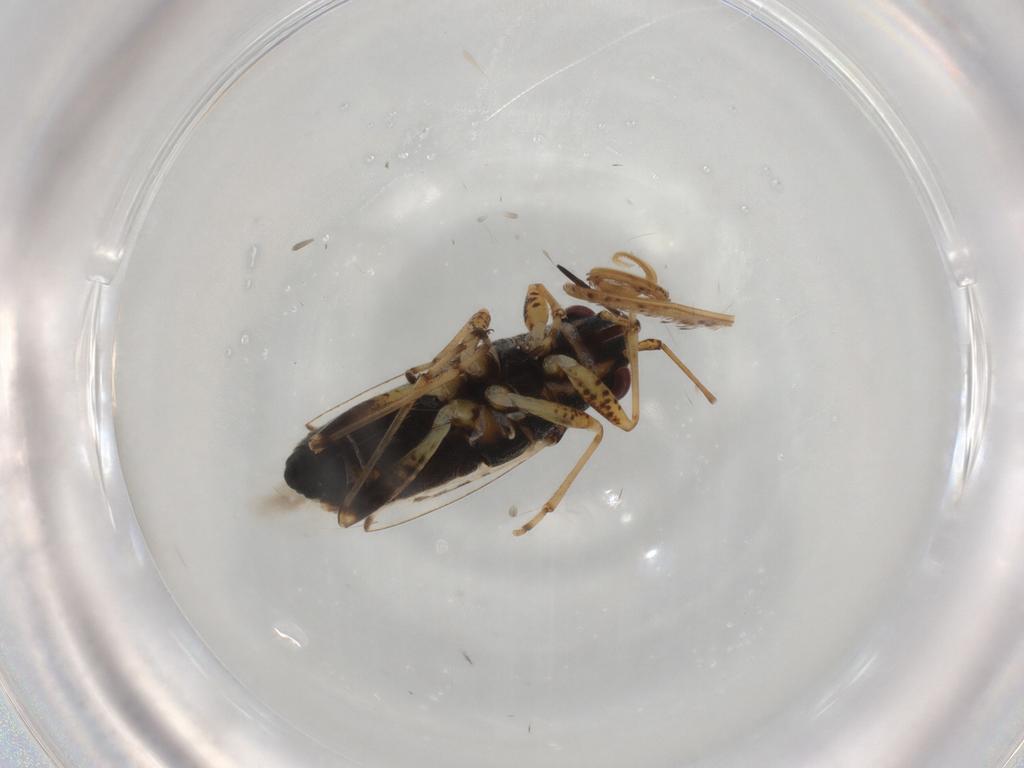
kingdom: Animalia
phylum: Arthropoda
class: Insecta
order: Hemiptera
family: Lygaeidae
